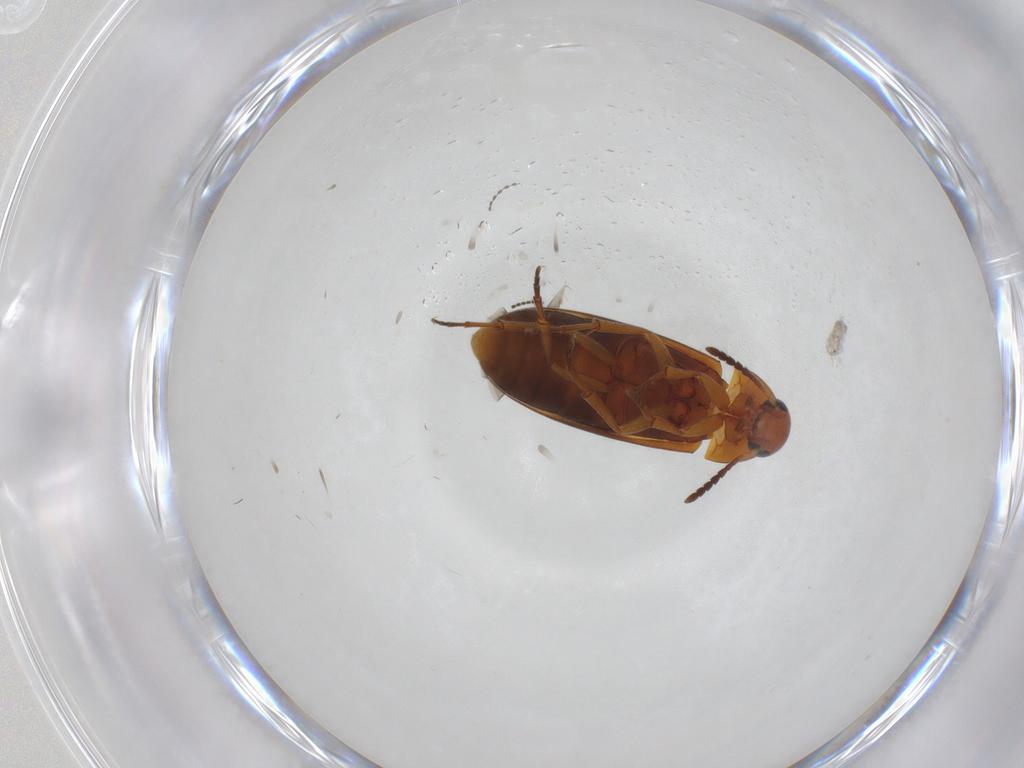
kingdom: Animalia
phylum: Arthropoda
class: Insecta
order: Coleoptera
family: Scraptiidae
